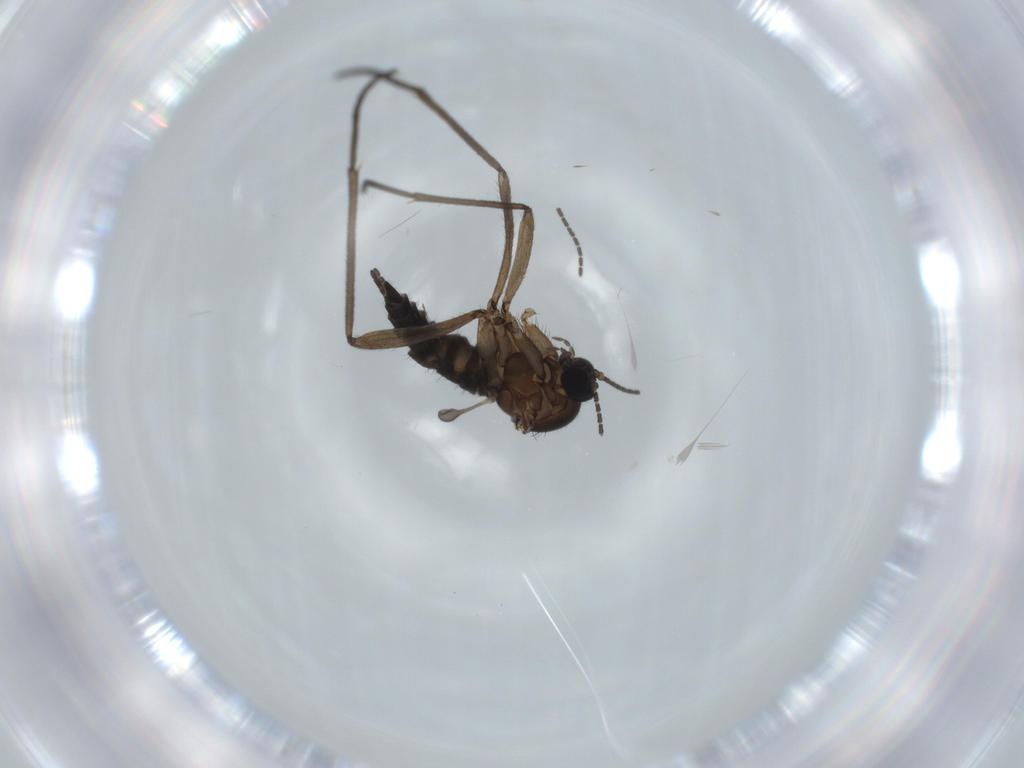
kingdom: Animalia
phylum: Arthropoda
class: Insecta
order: Diptera
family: Sciaridae
